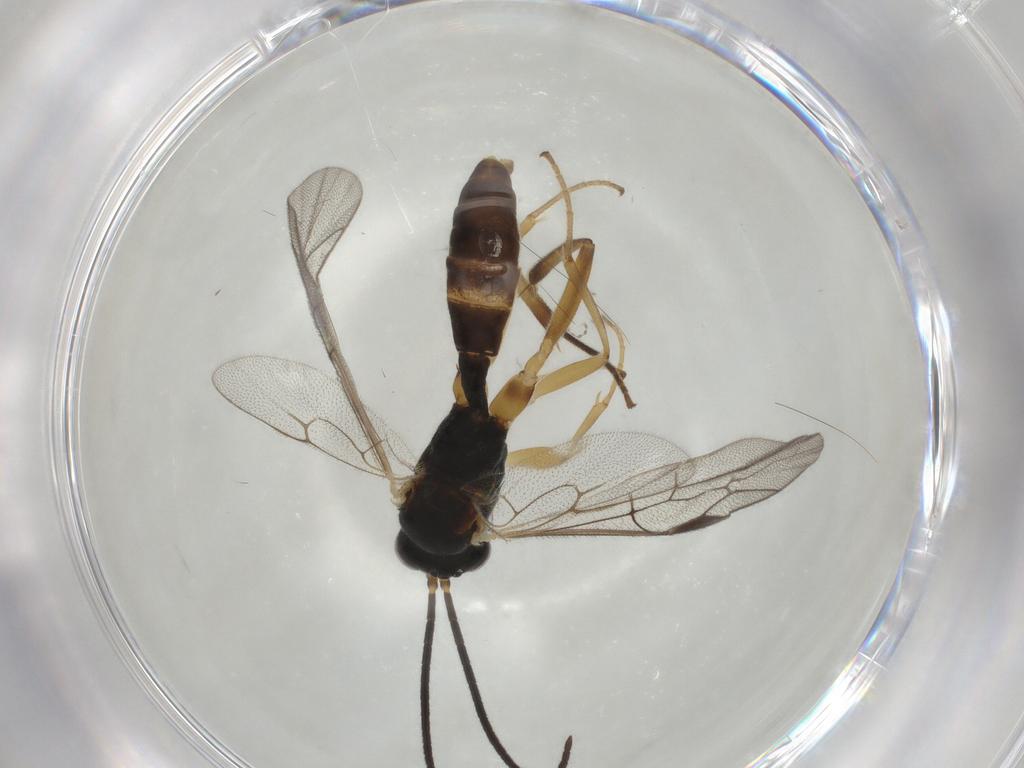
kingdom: Animalia
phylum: Arthropoda
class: Insecta
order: Hymenoptera
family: Ichneumonidae
